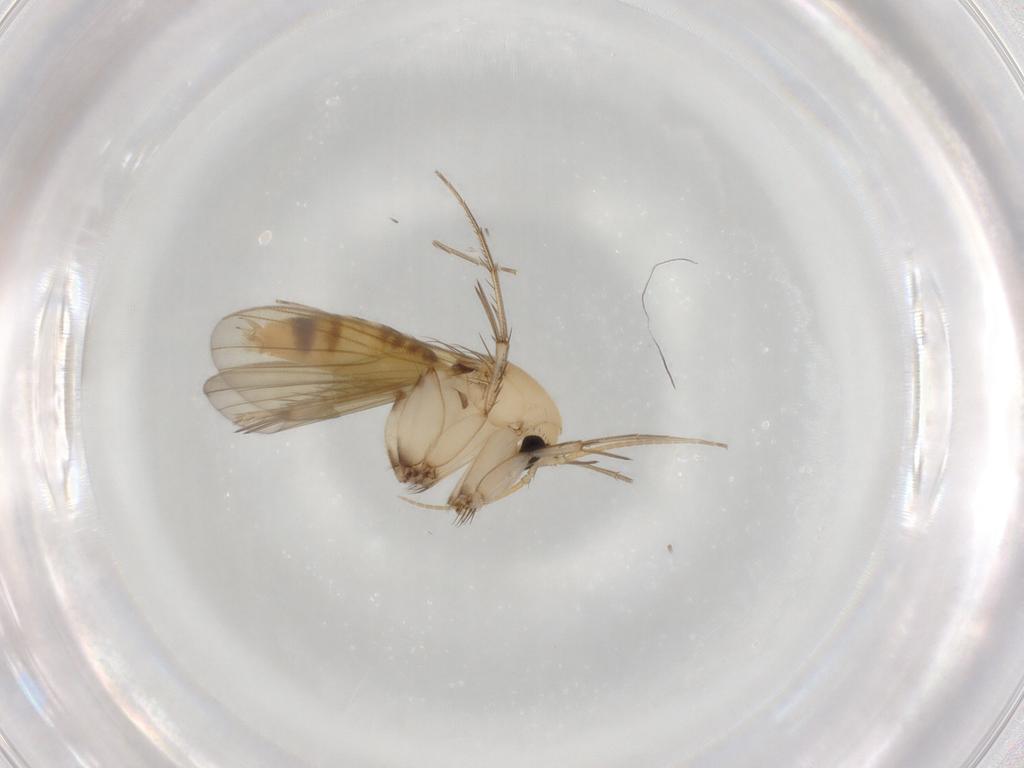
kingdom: Animalia
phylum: Arthropoda
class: Insecta
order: Diptera
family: Mycetophilidae
